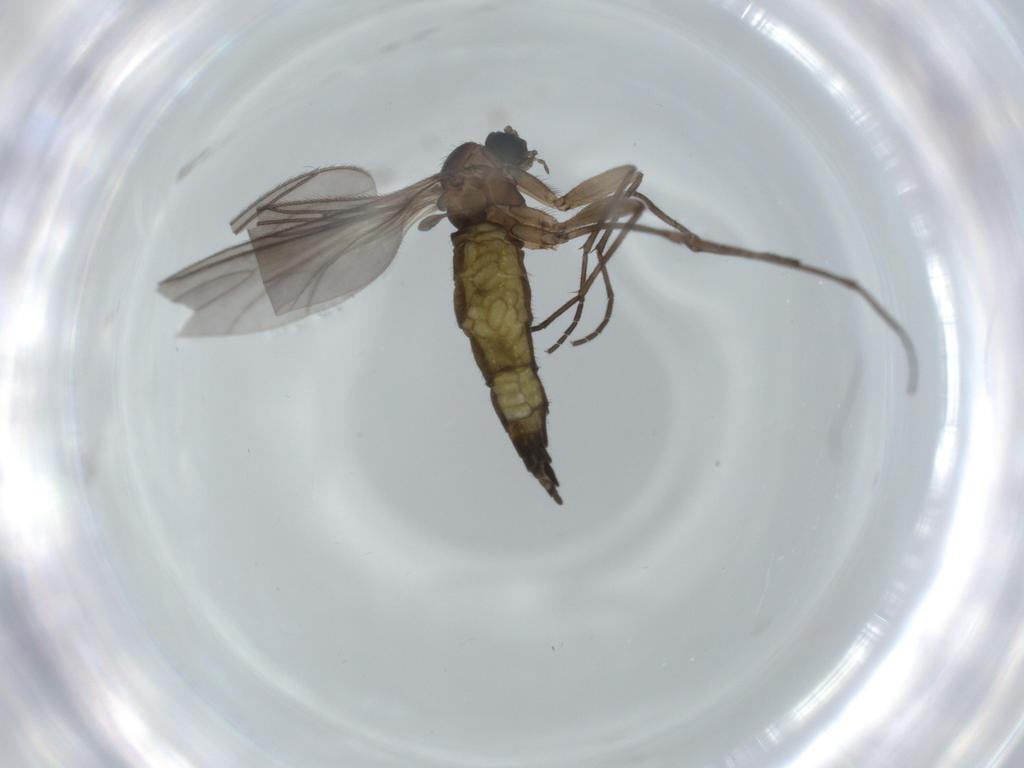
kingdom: Animalia
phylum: Arthropoda
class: Insecta
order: Diptera
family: Sciaridae
